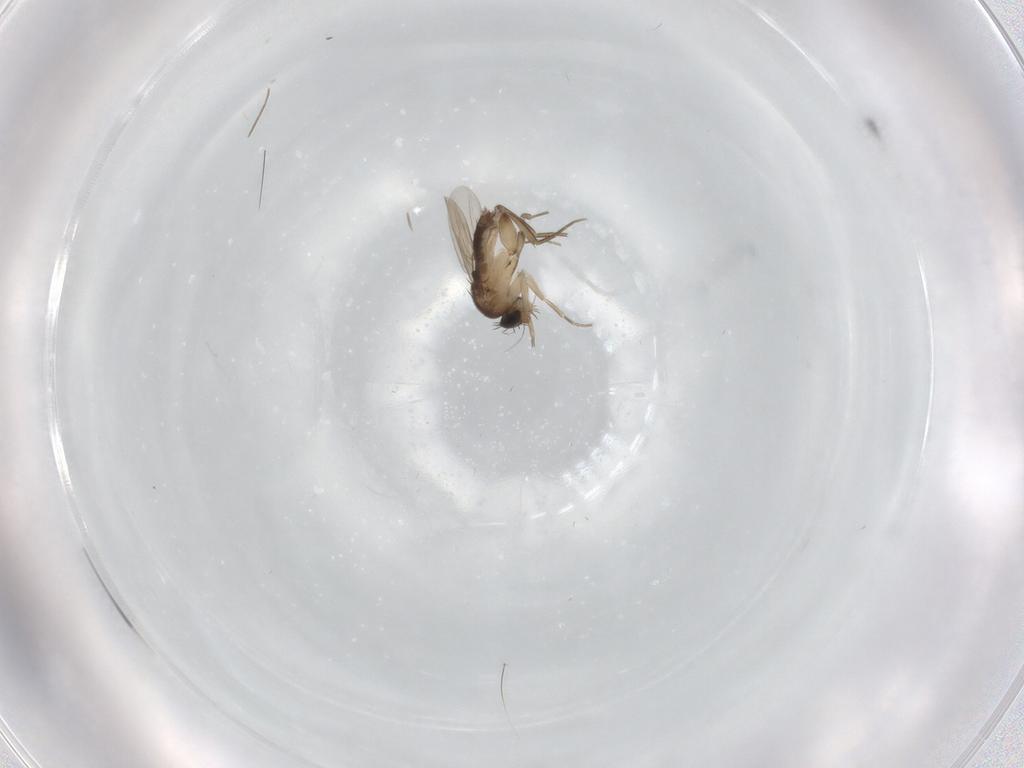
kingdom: Animalia
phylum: Arthropoda
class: Insecta
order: Diptera
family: Phoridae
